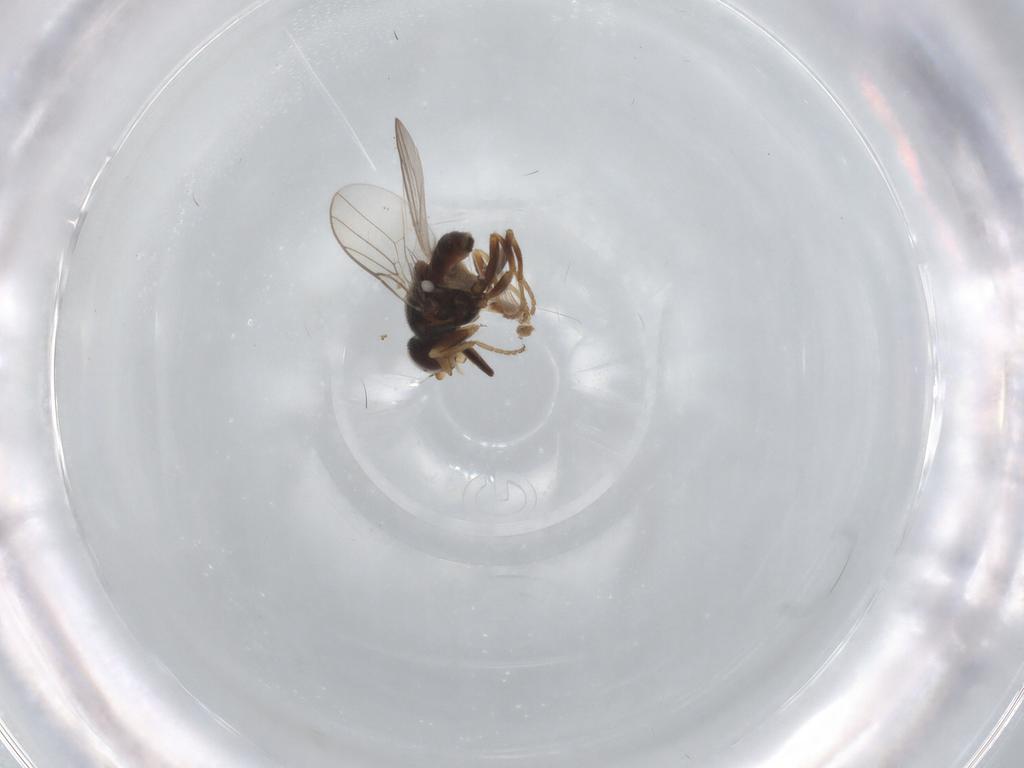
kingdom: Animalia
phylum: Arthropoda
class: Insecta
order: Diptera
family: Chloropidae
